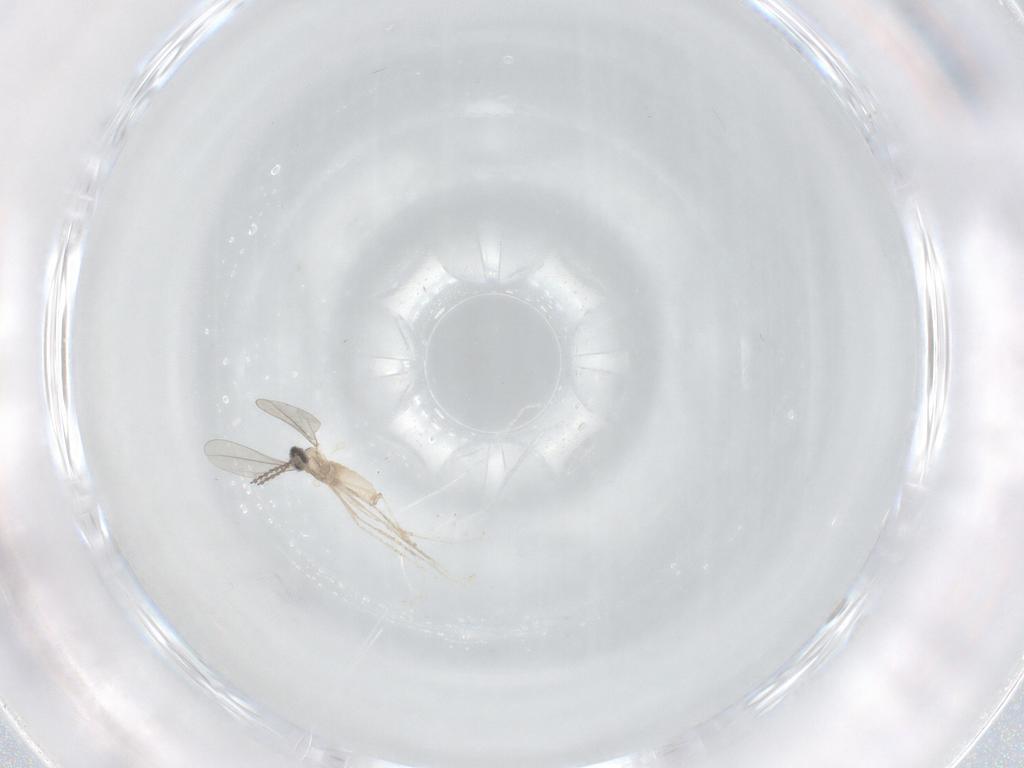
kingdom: Animalia
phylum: Arthropoda
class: Insecta
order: Diptera
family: Cecidomyiidae
